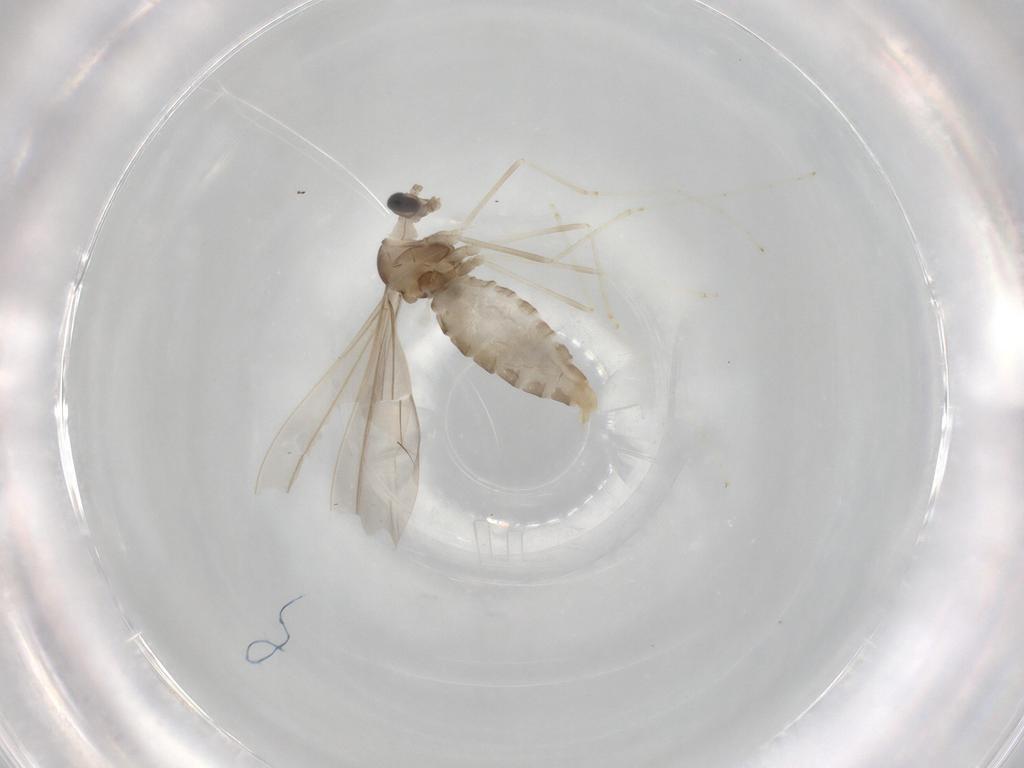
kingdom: Animalia
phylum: Arthropoda
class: Insecta
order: Diptera
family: Cecidomyiidae
